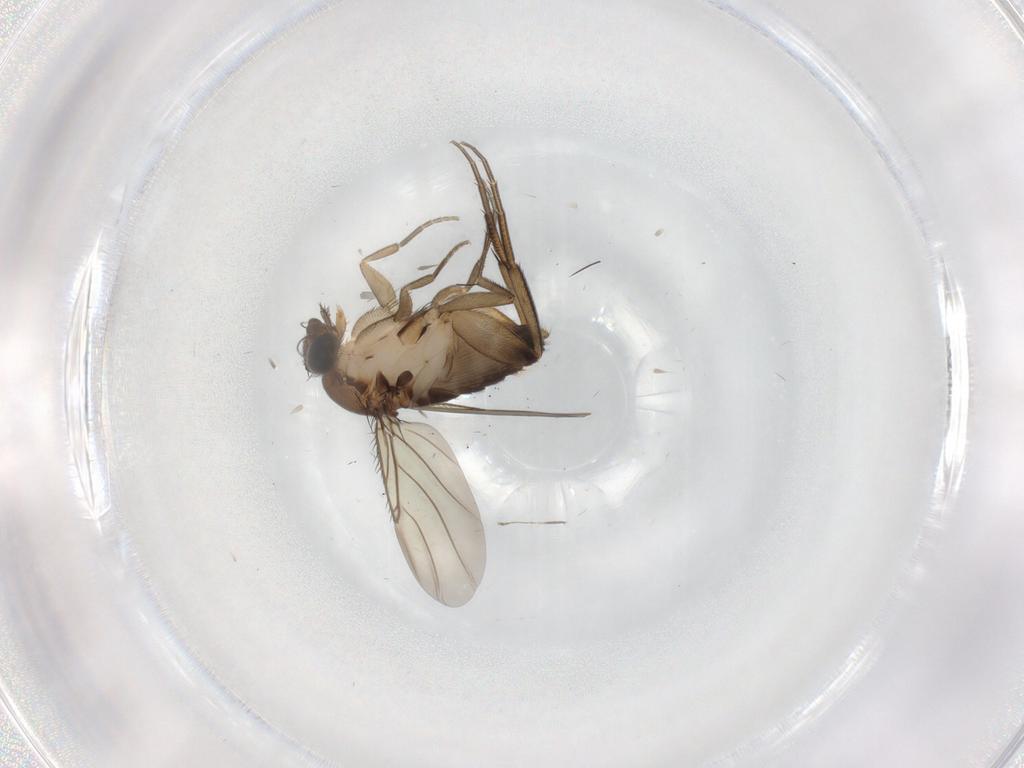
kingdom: Animalia
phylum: Arthropoda
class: Insecta
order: Diptera
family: Phoridae
